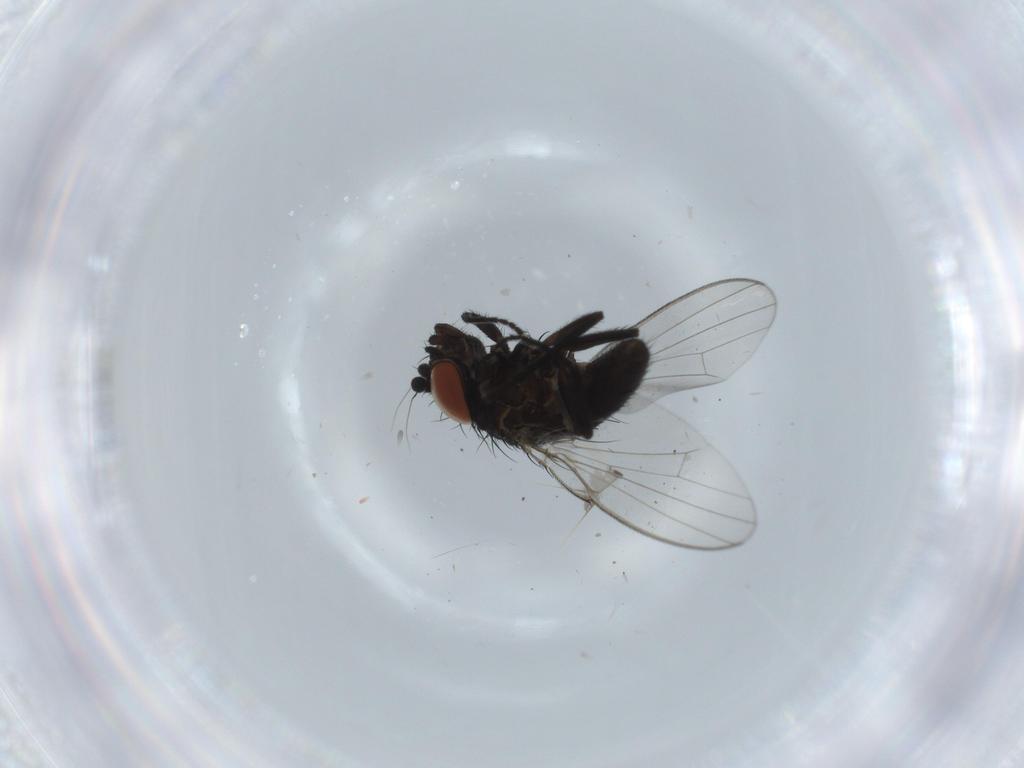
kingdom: Animalia
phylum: Arthropoda
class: Insecta
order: Diptera
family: Milichiidae
